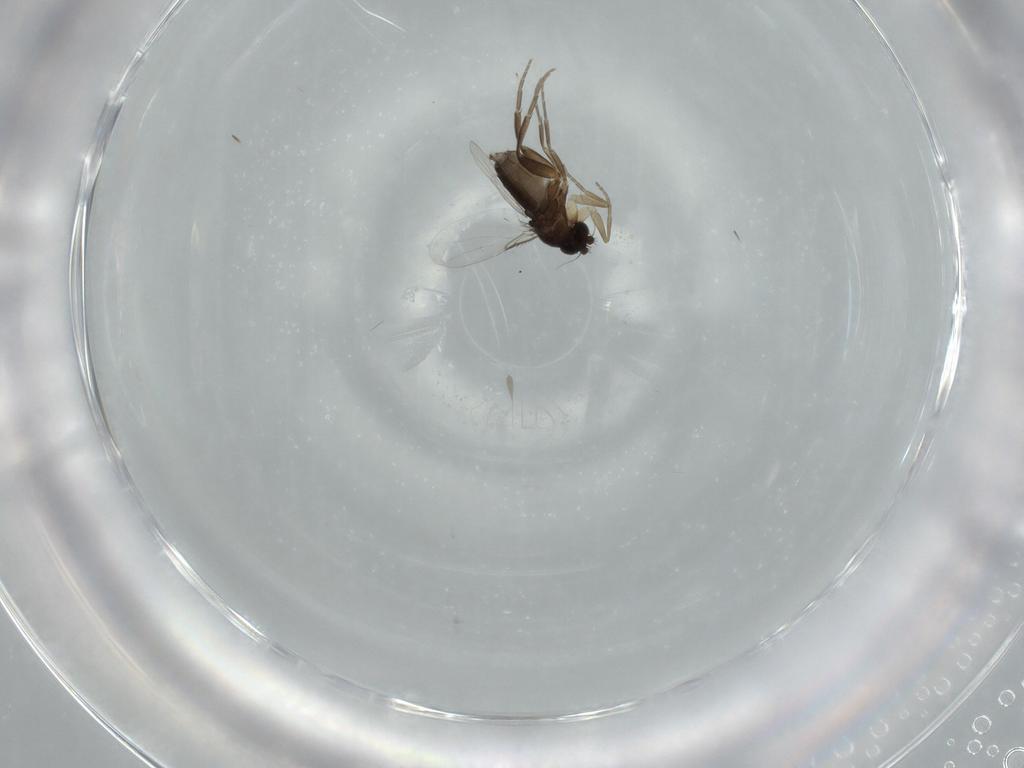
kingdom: Animalia
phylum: Arthropoda
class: Insecta
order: Diptera
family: Phoridae
